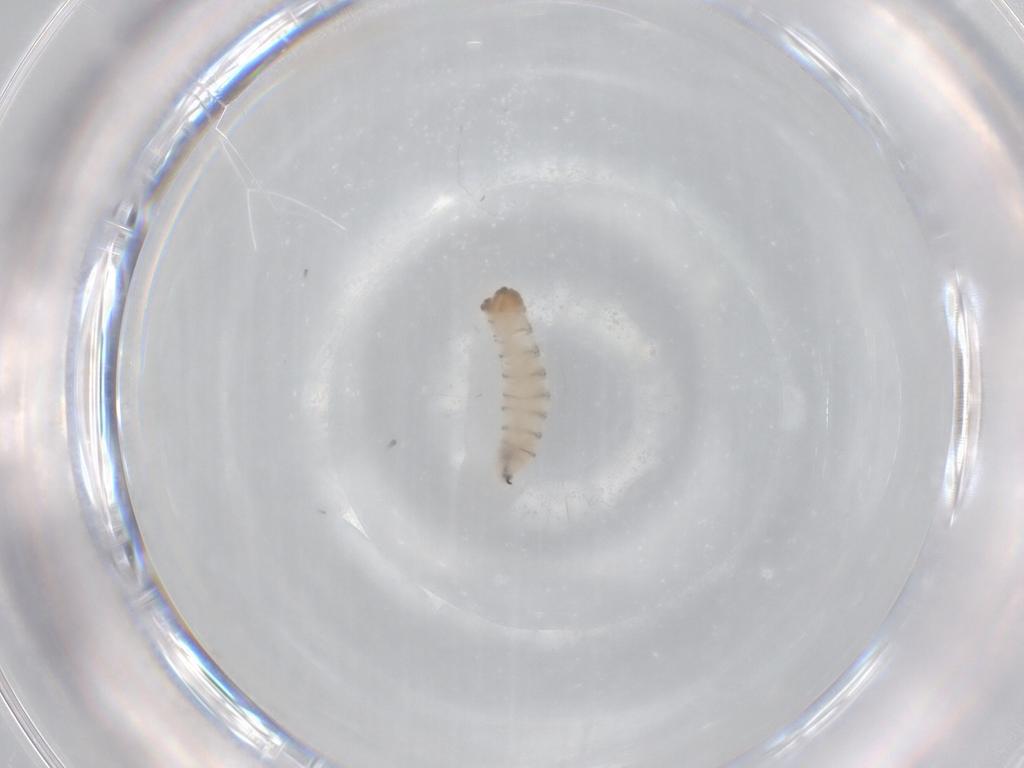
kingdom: Animalia
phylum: Arthropoda
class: Insecta
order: Diptera
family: Sarcophagidae
